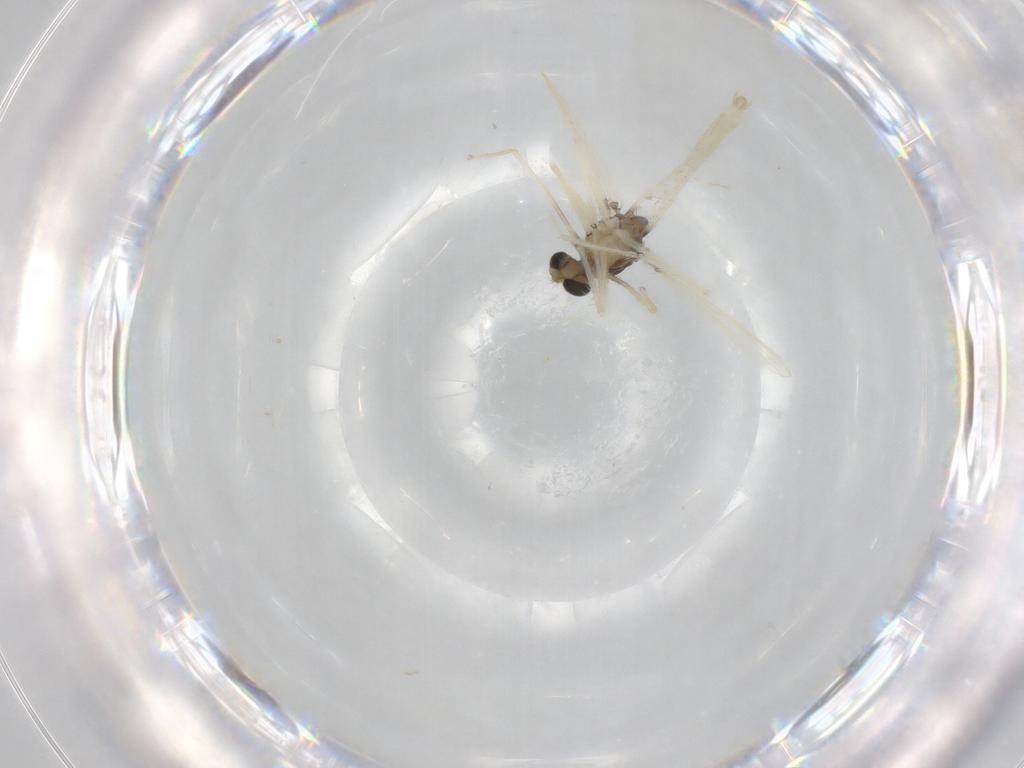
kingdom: Animalia
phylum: Arthropoda
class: Insecta
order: Diptera
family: Chironomidae
